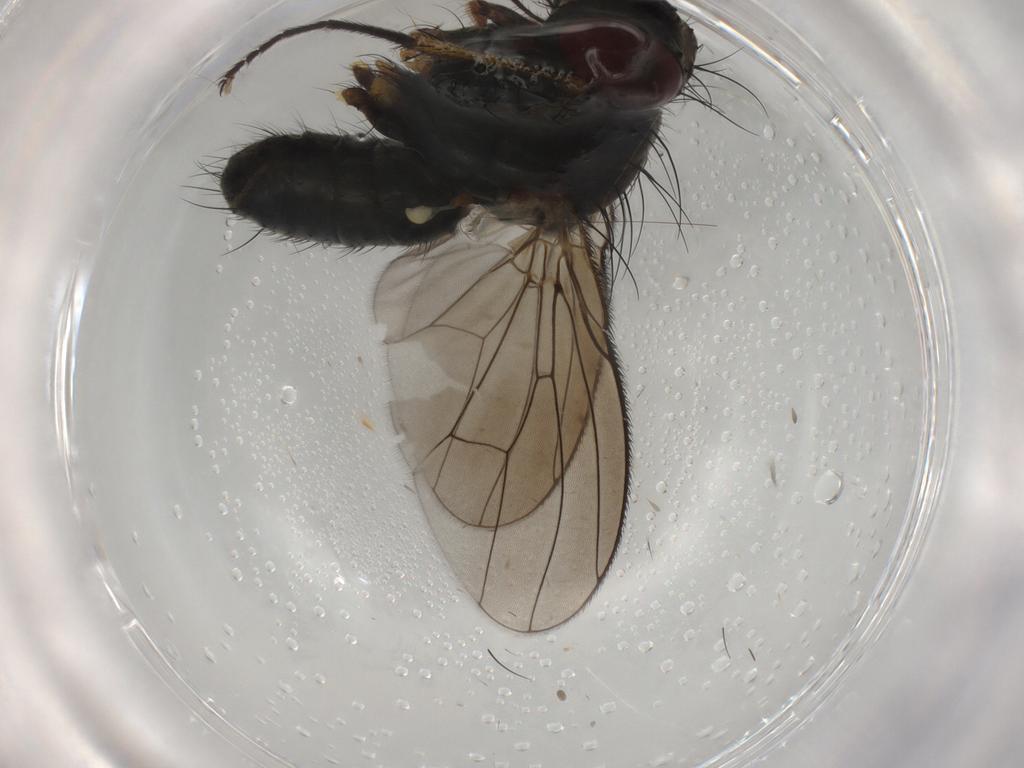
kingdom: Animalia
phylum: Arthropoda
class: Insecta
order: Diptera
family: Muscidae
